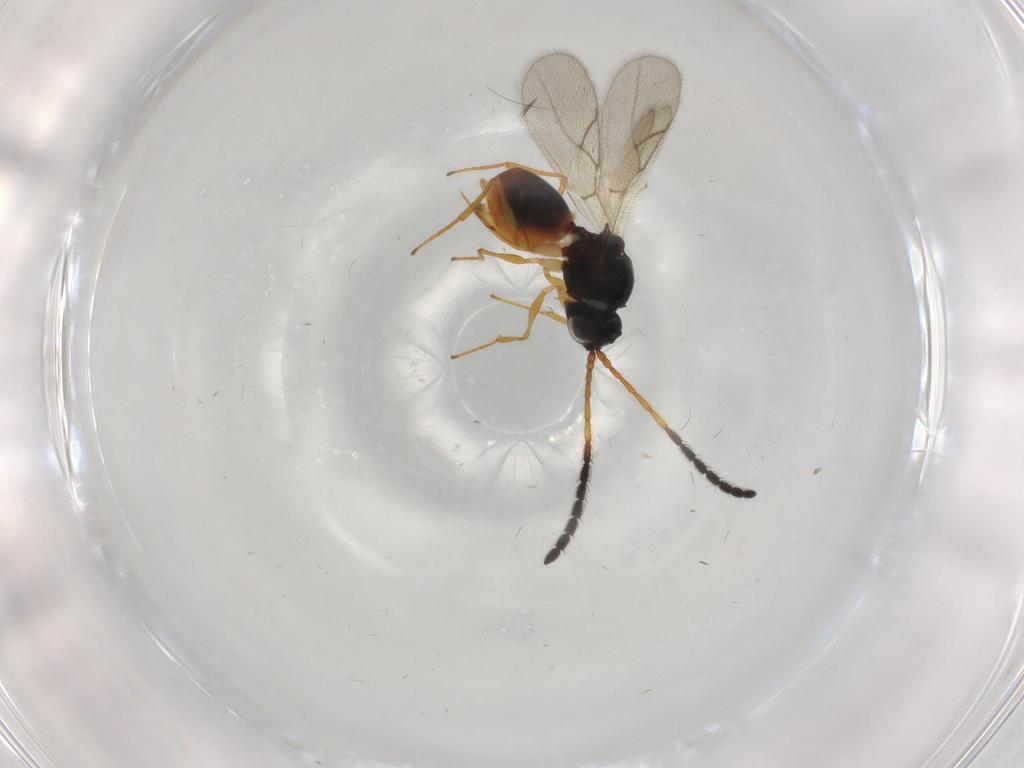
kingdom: Animalia
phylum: Arthropoda
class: Insecta
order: Hymenoptera
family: Figitidae
